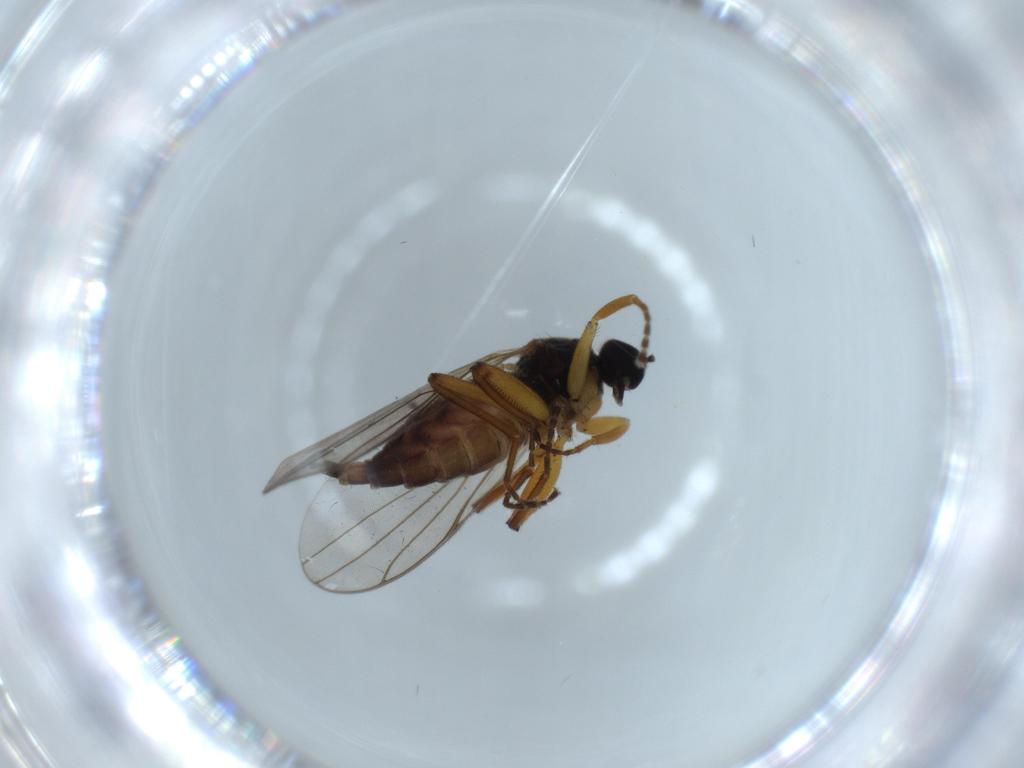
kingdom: Animalia
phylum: Arthropoda
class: Insecta
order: Diptera
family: Hybotidae
